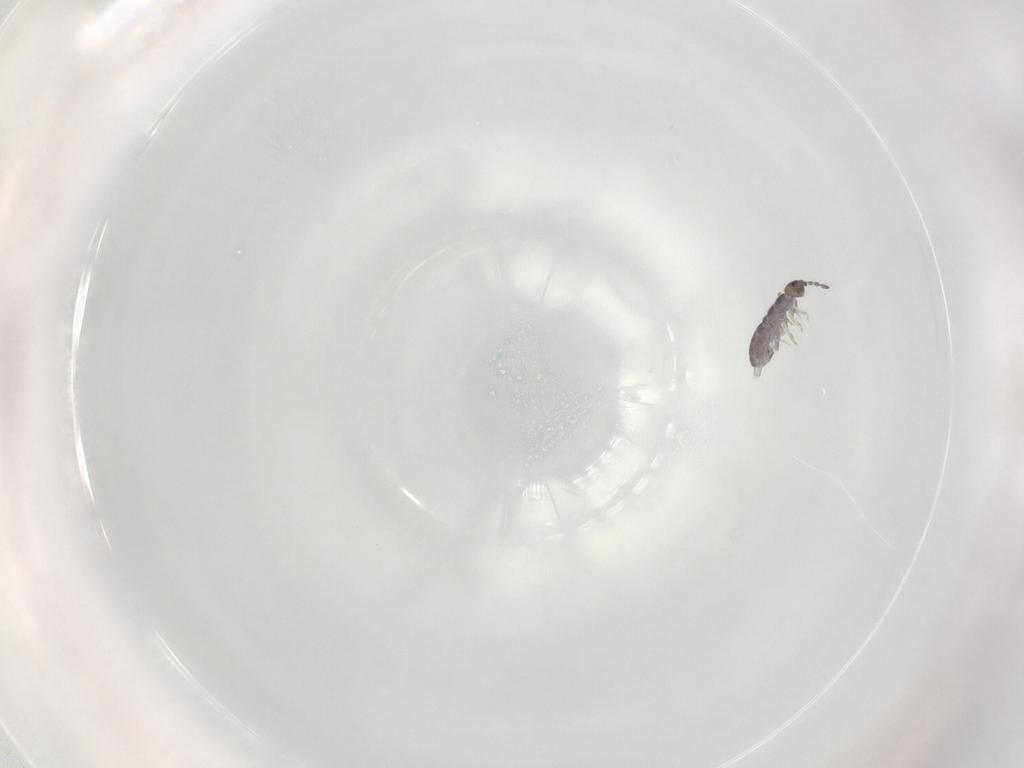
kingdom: Animalia
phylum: Arthropoda
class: Collembola
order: Entomobryomorpha
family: Isotomidae
